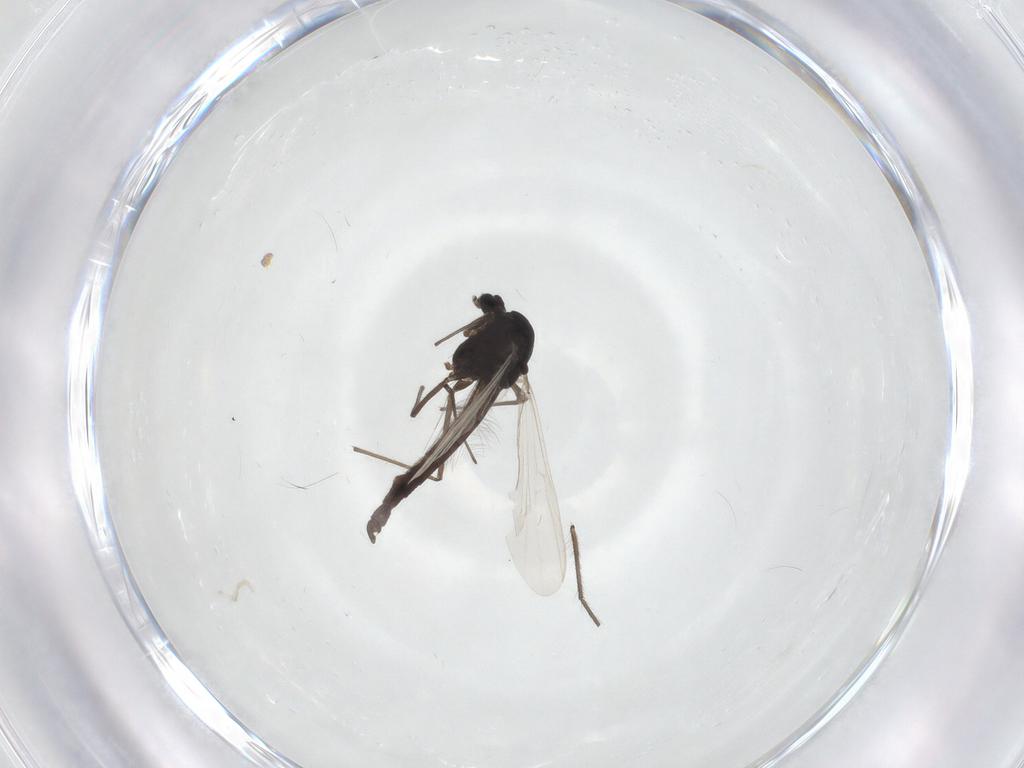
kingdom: Animalia
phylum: Arthropoda
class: Insecta
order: Diptera
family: Chironomidae
